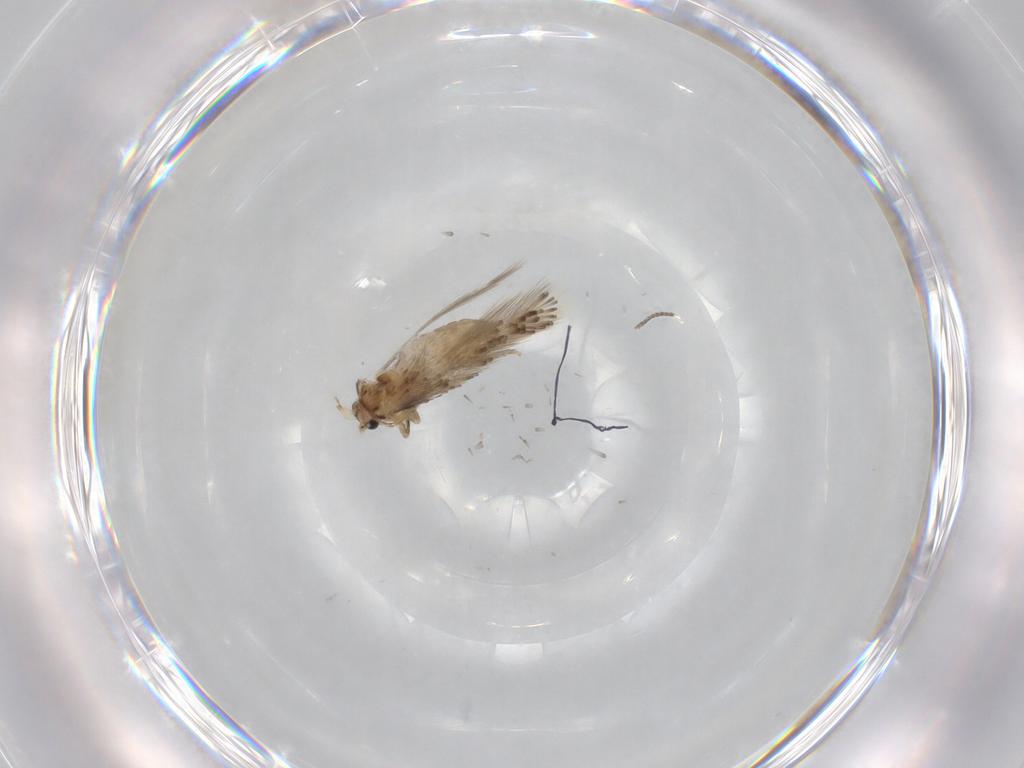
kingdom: Animalia
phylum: Arthropoda
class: Insecta
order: Lepidoptera
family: Nepticulidae
